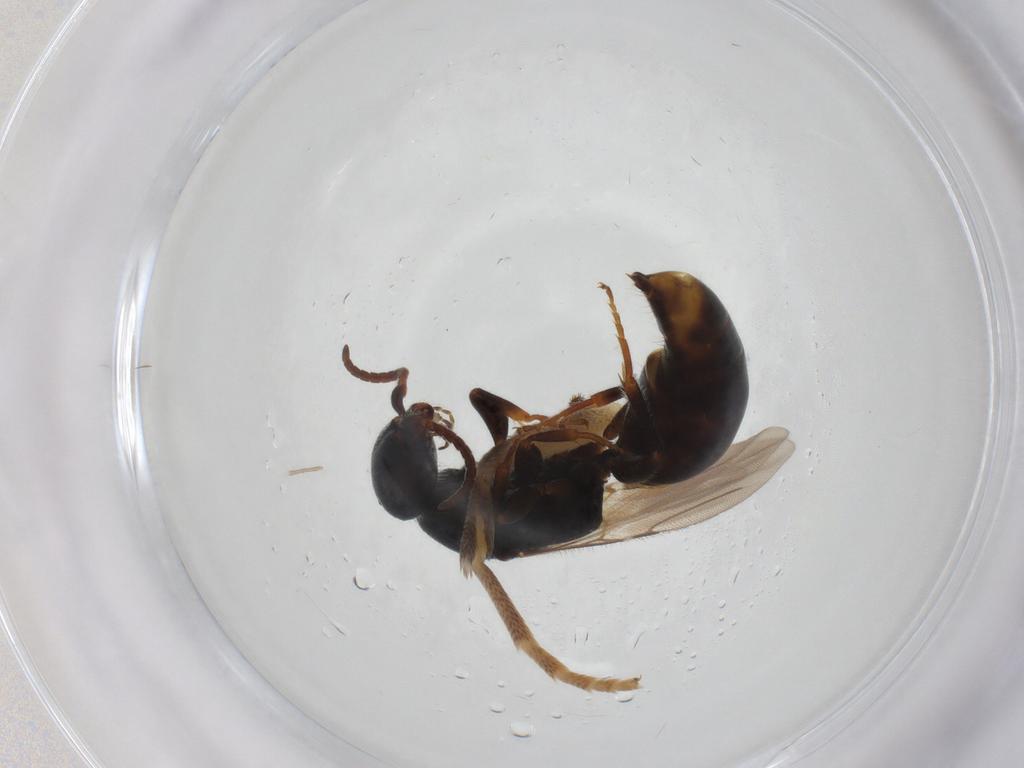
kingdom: Animalia
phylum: Arthropoda
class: Insecta
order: Hymenoptera
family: Bethylidae
